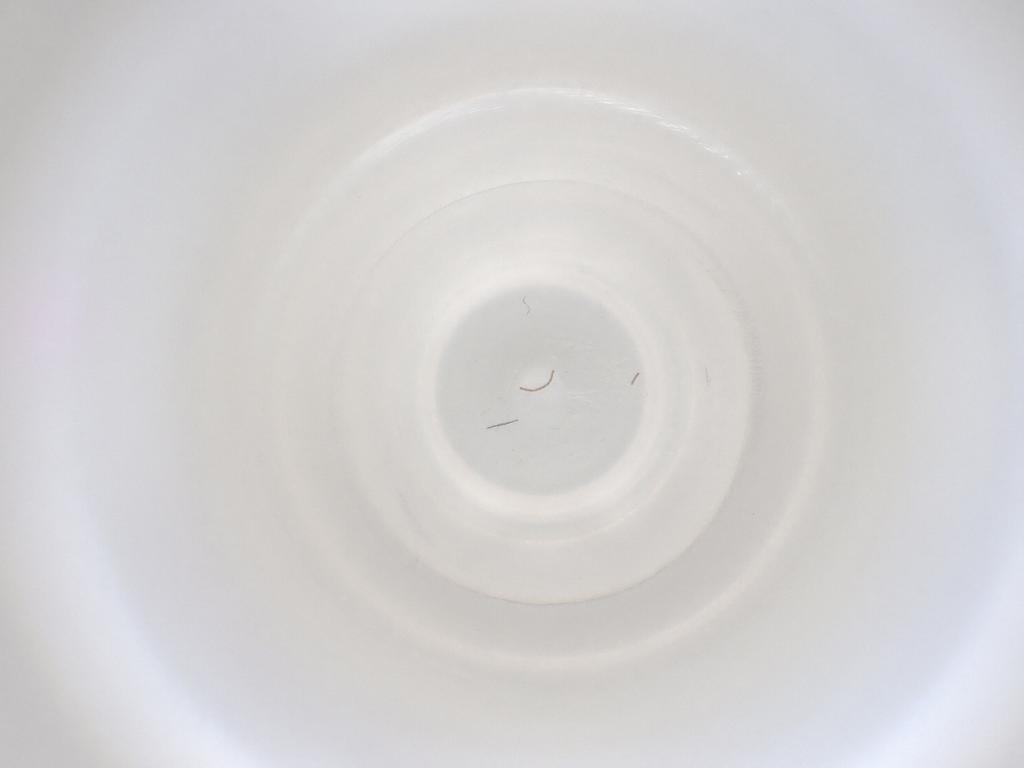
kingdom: Animalia
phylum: Arthropoda
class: Insecta
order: Diptera
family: Cecidomyiidae
